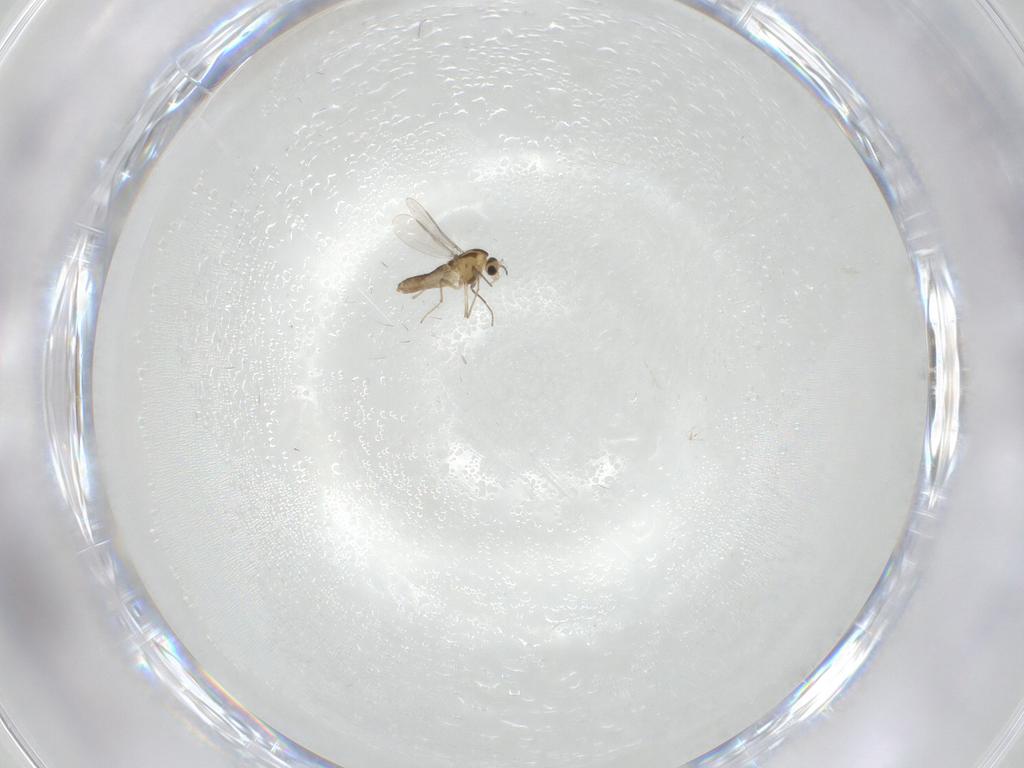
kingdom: Animalia
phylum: Arthropoda
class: Insecta
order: Diptera
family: Chironomidae
